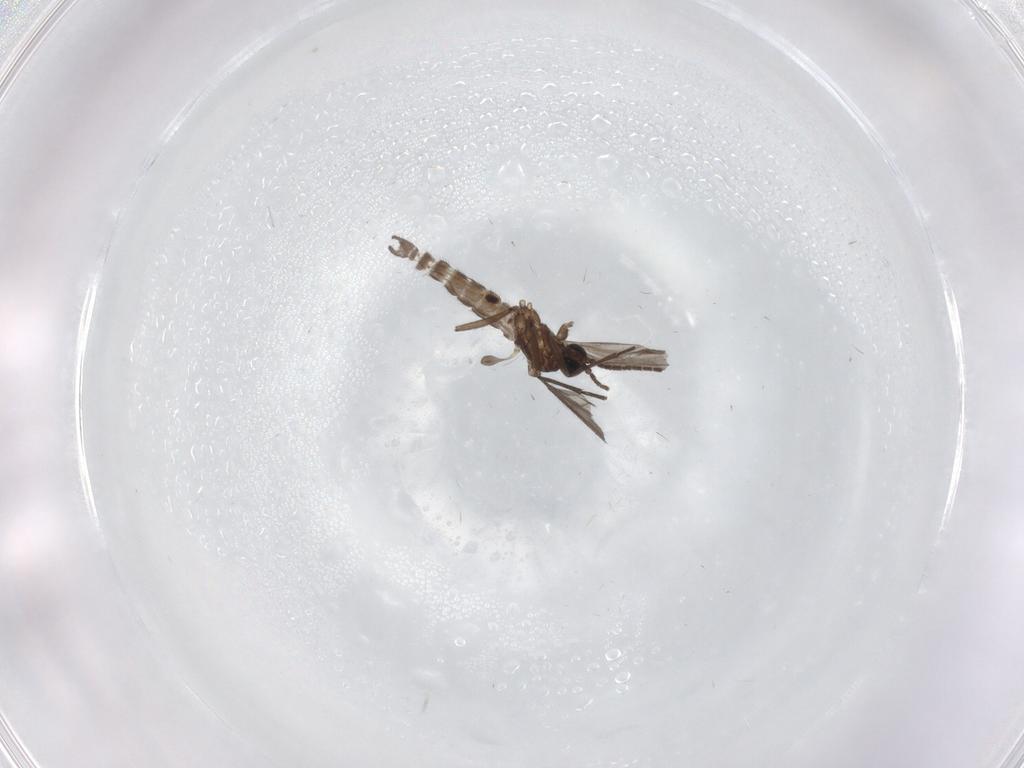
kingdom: Animalia
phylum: Arthropoda
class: Insecta
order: Diptera
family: Sciaridae
